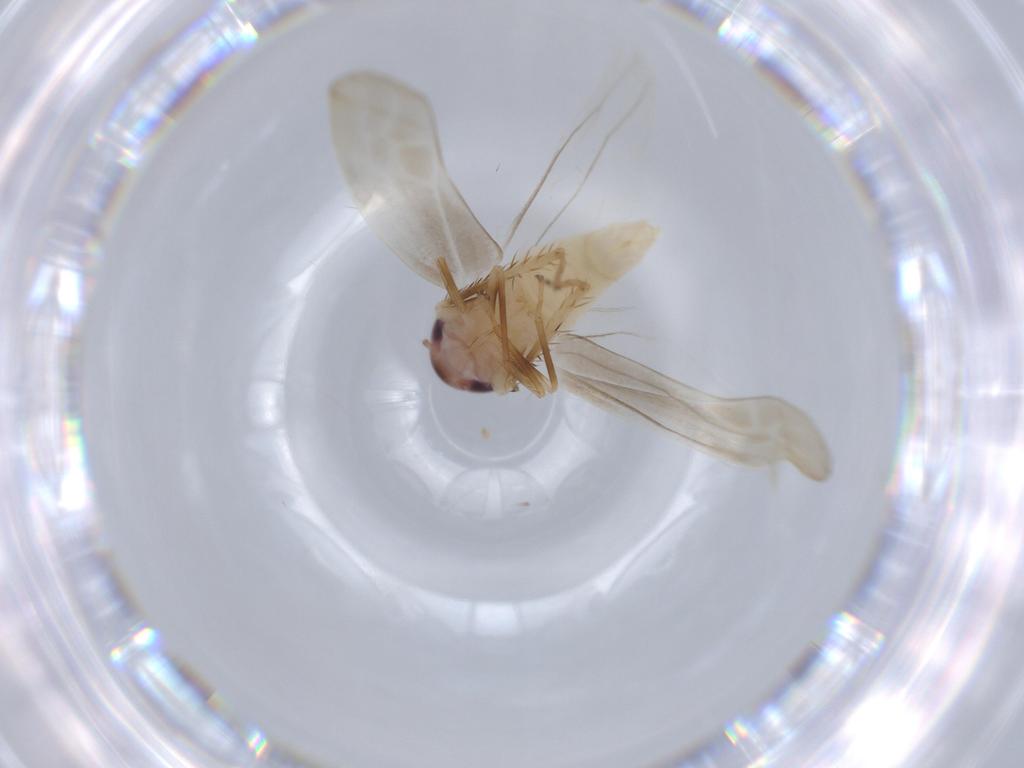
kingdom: Animalia
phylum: Arthropoda
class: Insecta
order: Hemiptera
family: Cicadellidae
